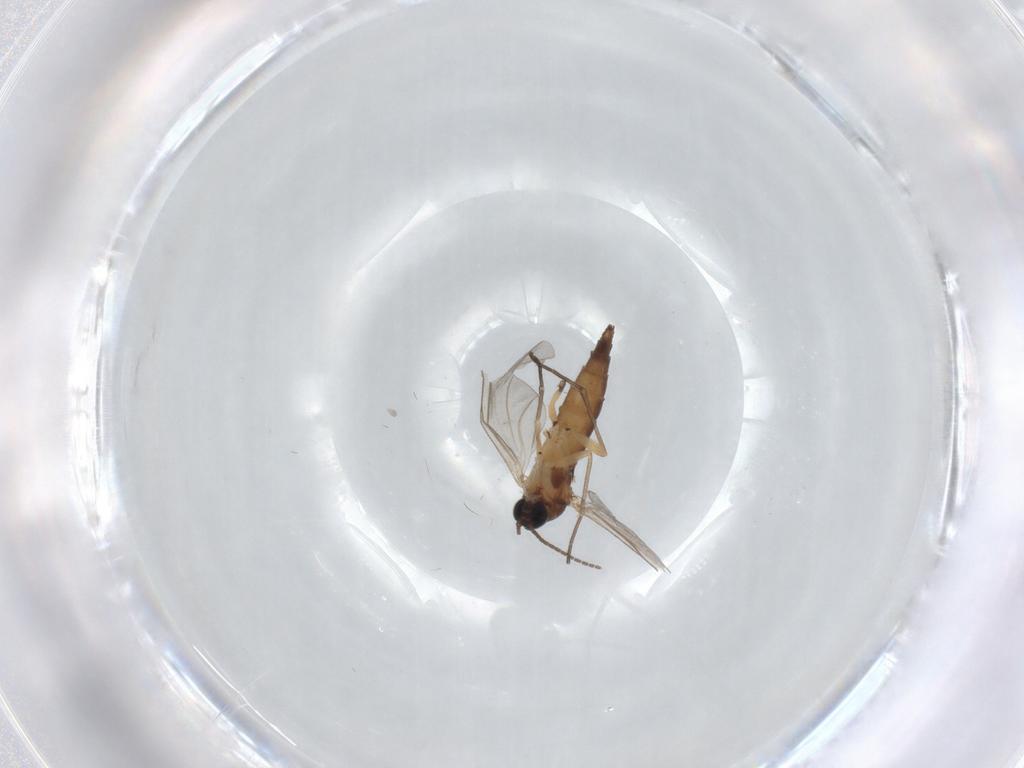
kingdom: Animalia
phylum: Arthropoda
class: Insecta
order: Diptera
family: Sciaridae
